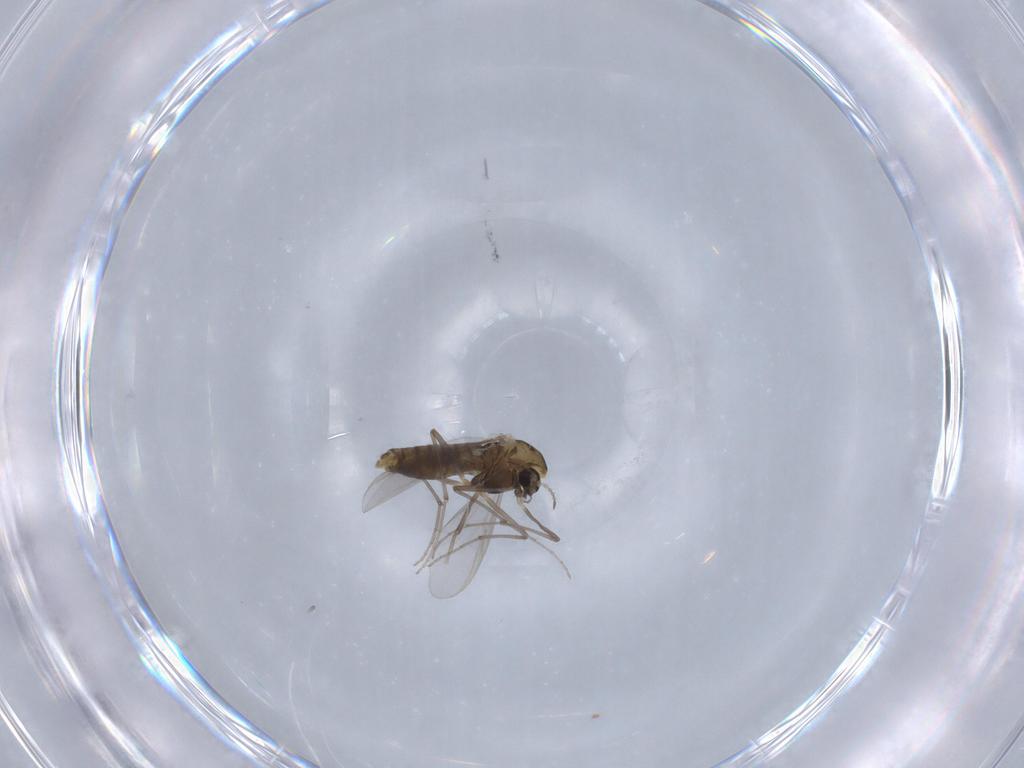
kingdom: Animalia
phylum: Arthropoda
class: Insecta
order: Diptera
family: Chironomidae
